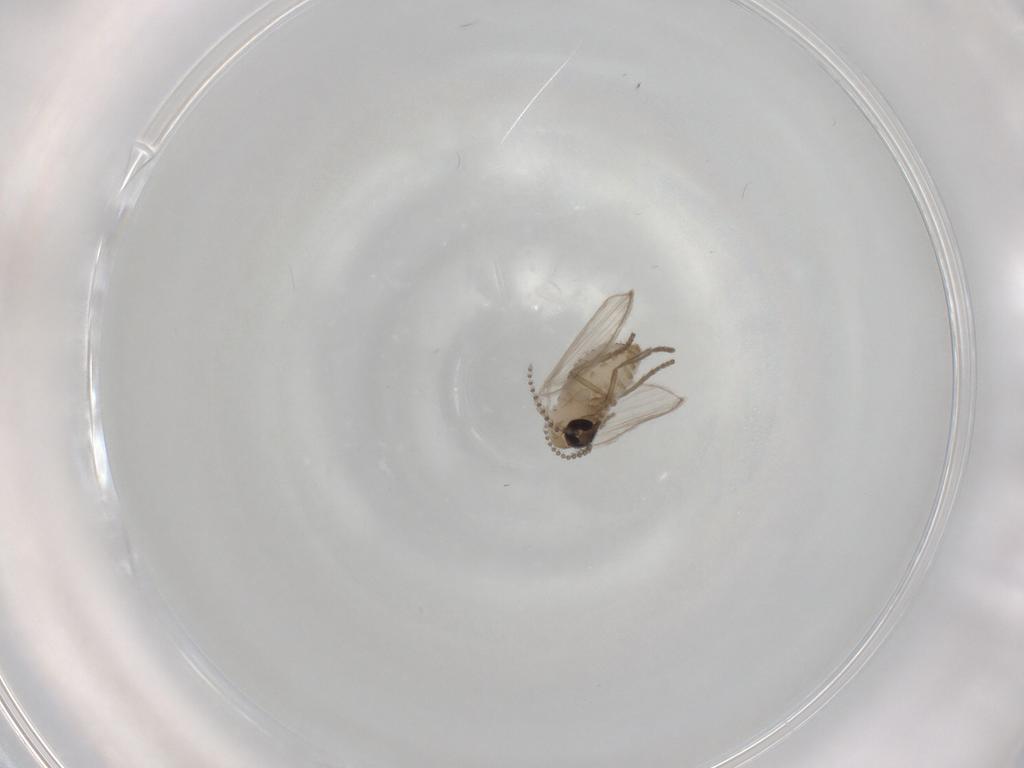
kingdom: Animalia
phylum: Arthropoda
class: Insecta
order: Diptera
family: Psychodidae
